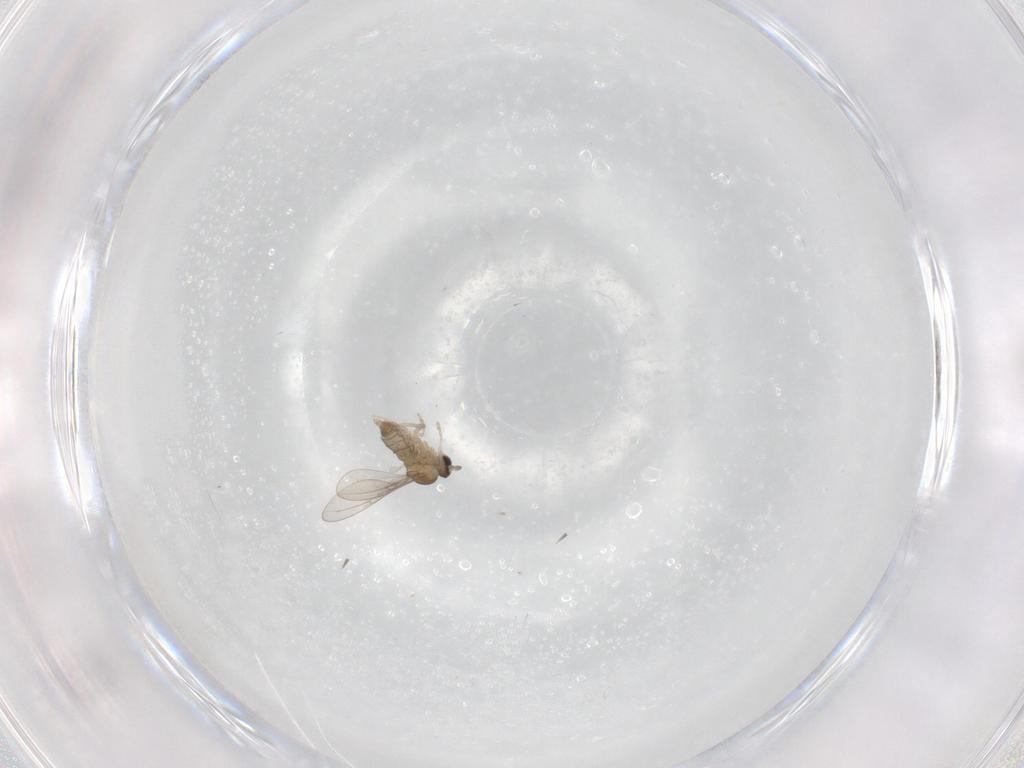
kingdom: Animalia
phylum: Arthropoda
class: Insecta
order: Diptera
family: Cecidomyiidae
